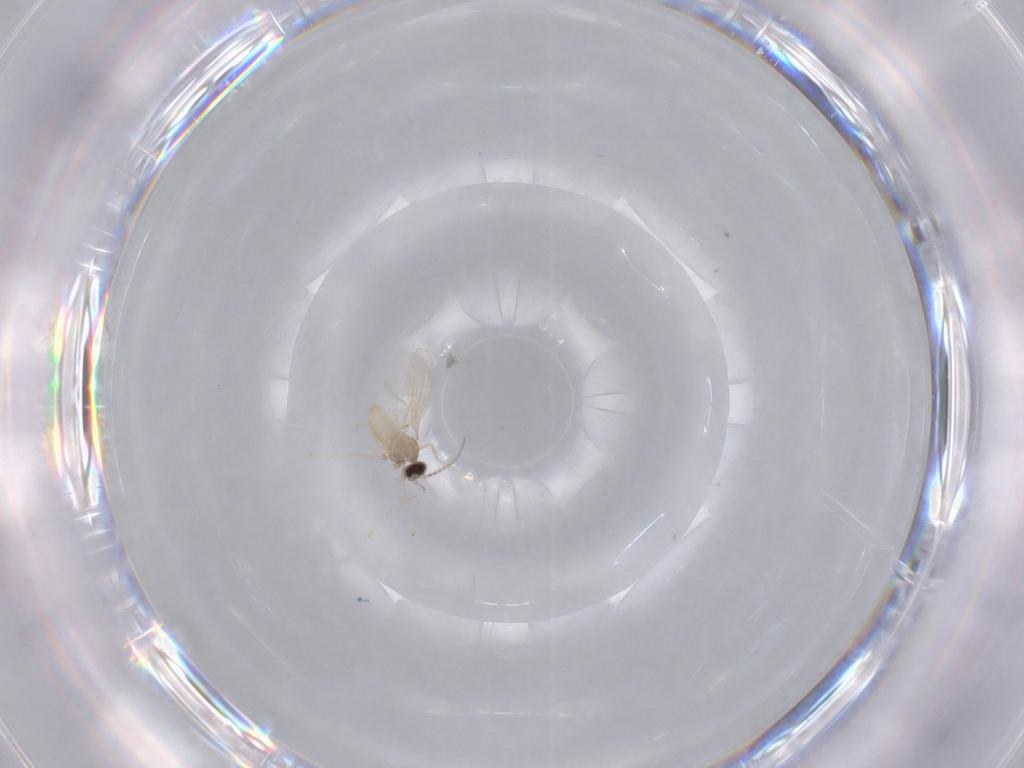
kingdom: Animalia
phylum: Arthropoda
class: Insecta
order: Diptera
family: Cecidomyiidae
